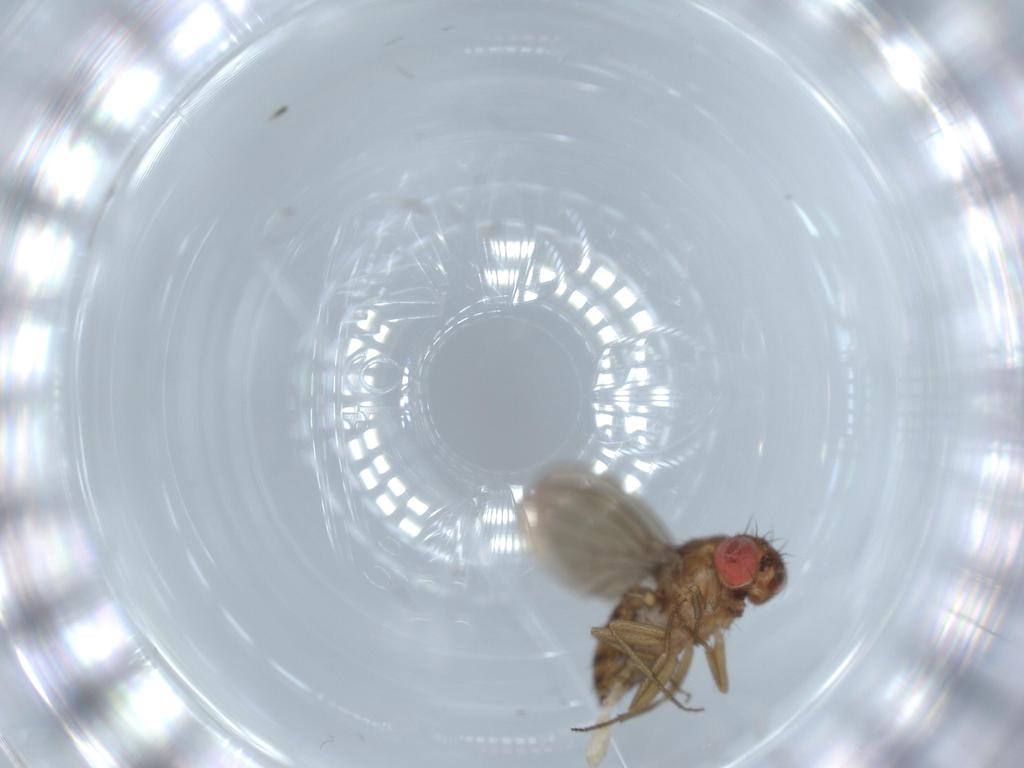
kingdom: Animalia
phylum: Arthropoda
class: Insecta
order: Diptera
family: Drosophilidae
